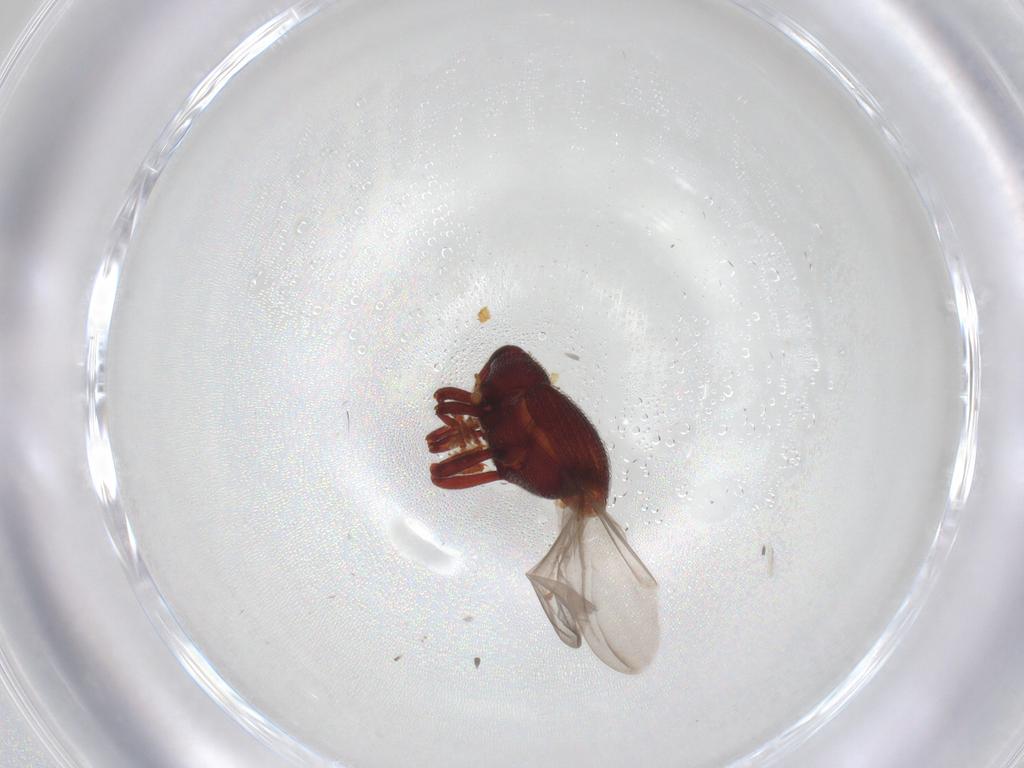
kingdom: Animalia
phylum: Arthropoda
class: Insecta
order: Coleoptera
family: Curculionidae
